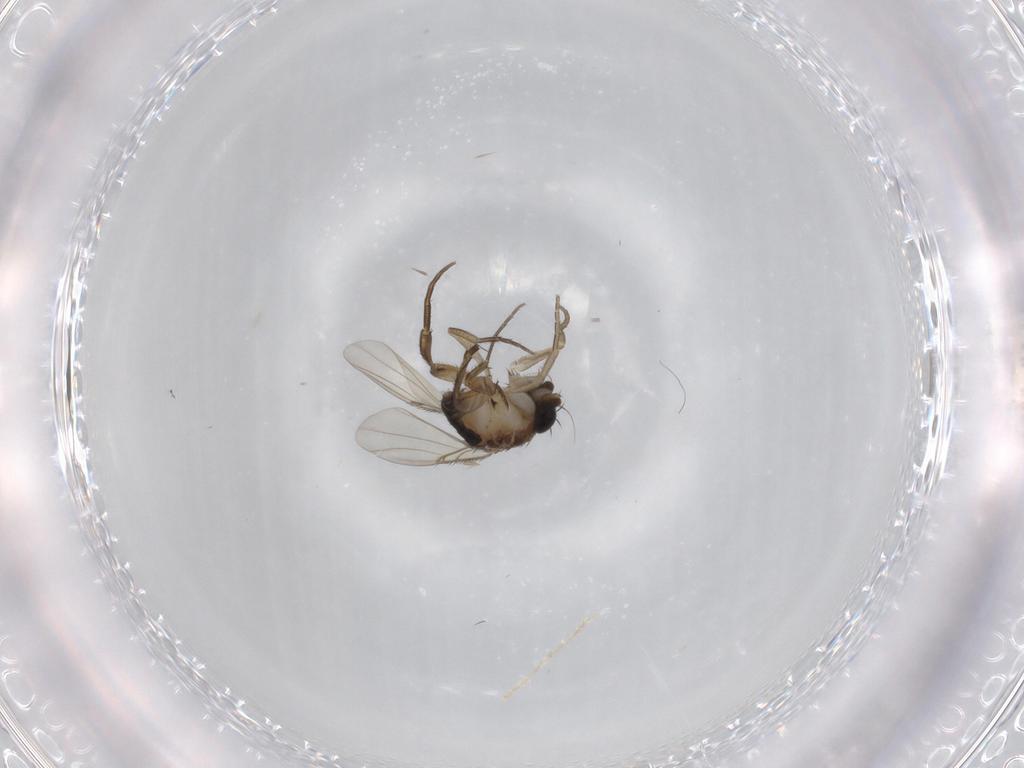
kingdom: Animalia
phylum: Arthropoda
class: Insecta
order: Diptera
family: Phoridae
